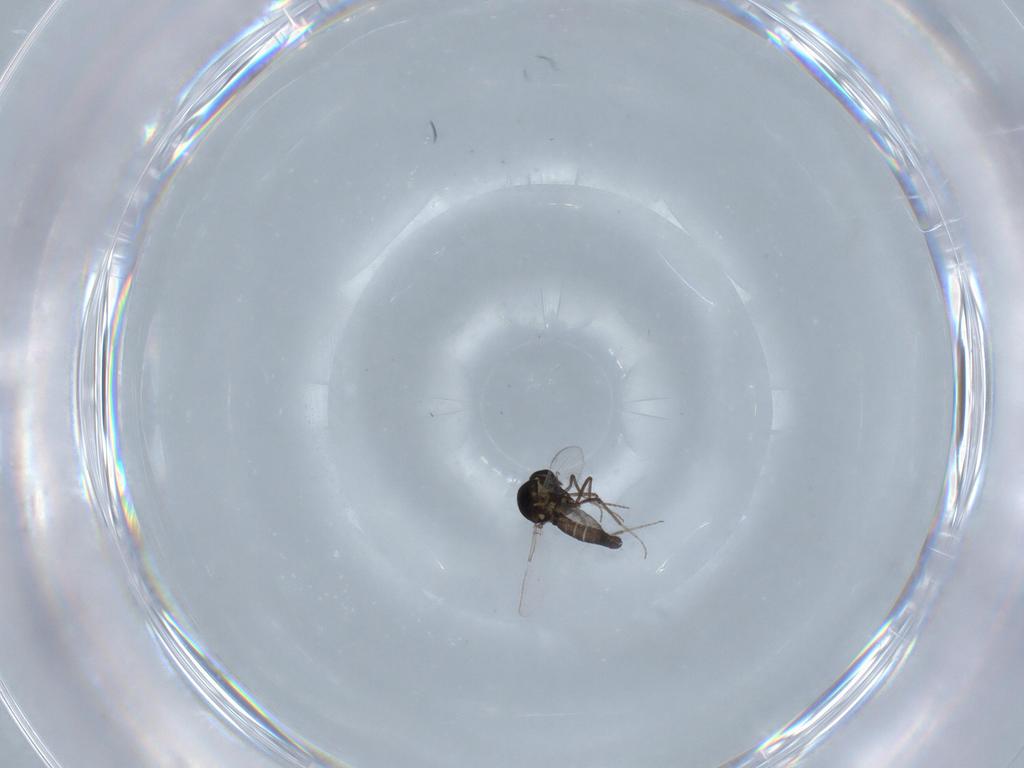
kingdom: Animalia
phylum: Arthropoda
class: Insecta
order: Diptera
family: Ceratopogonidae
